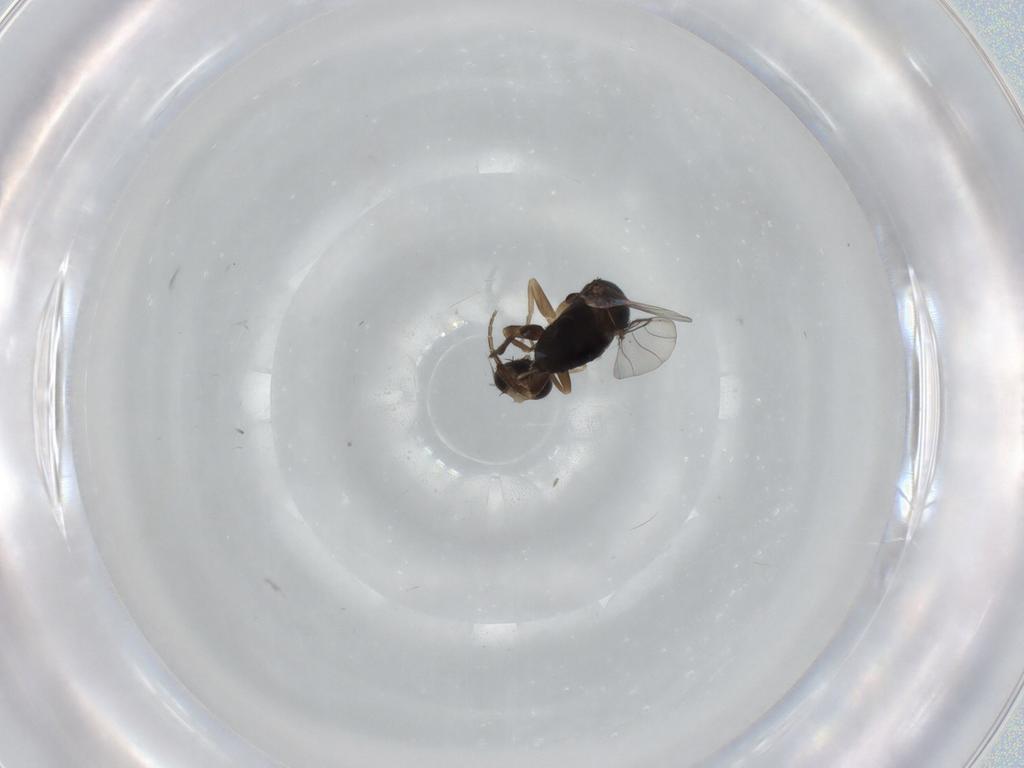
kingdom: Animalia
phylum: Arthropoda
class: Insecta
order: Diptera
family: Phoridae
